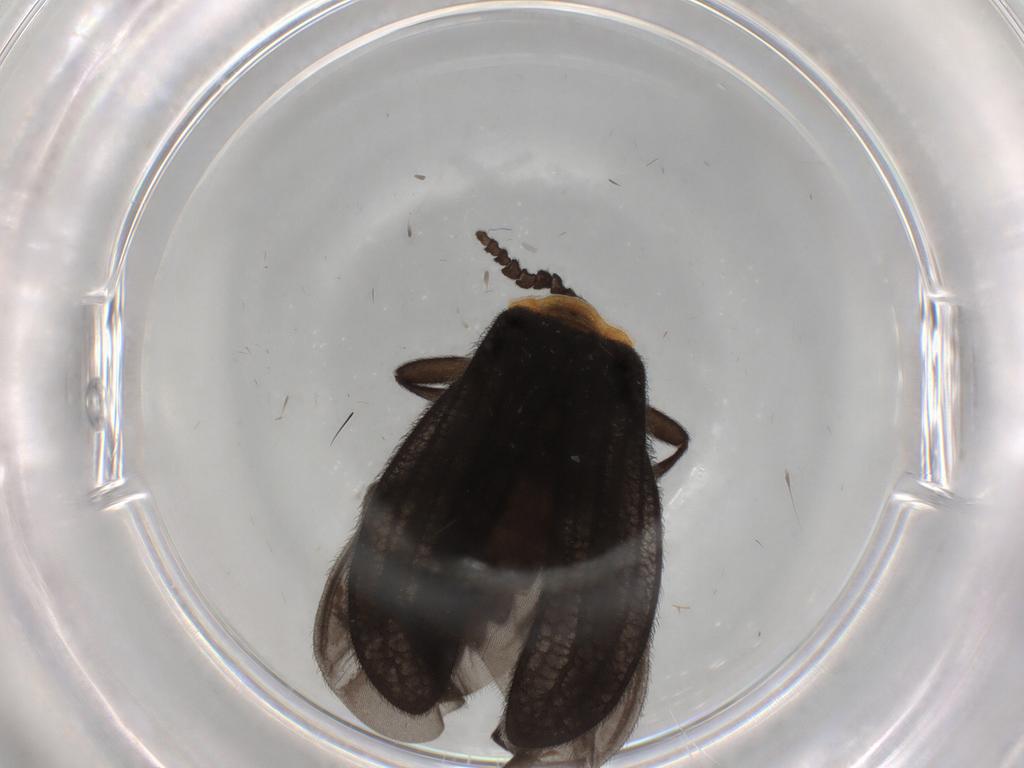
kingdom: Animalia
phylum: Arthropoda
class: Insecta
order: Coleoptera
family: Lycidae
